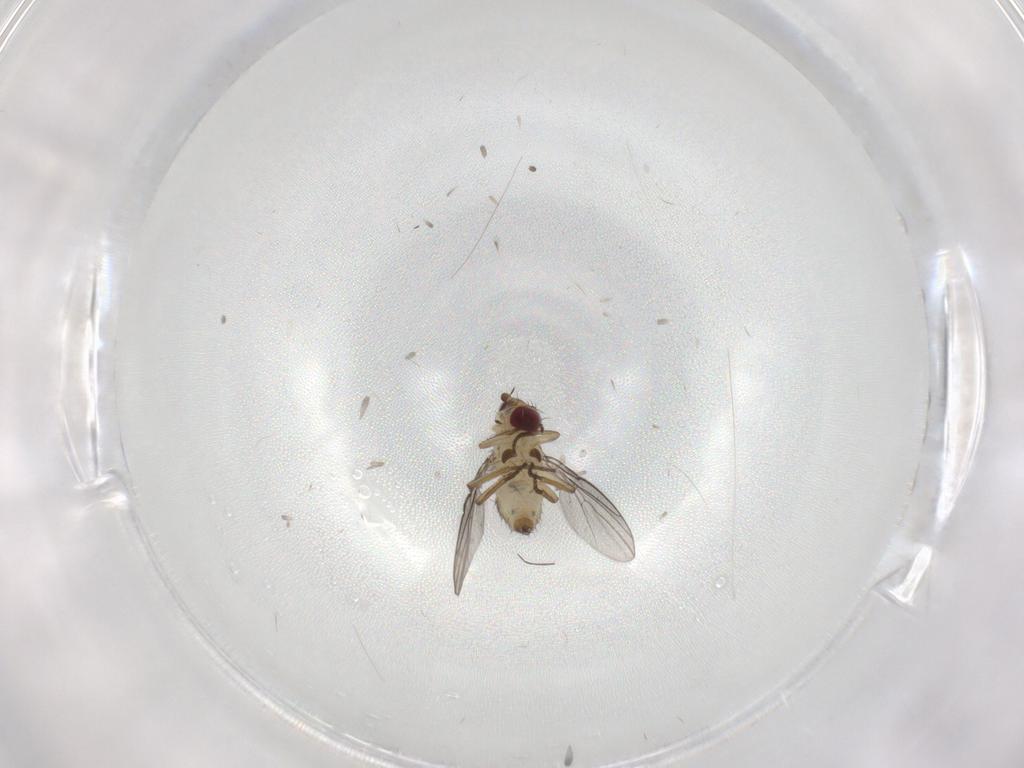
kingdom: Animalia
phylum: Arthropoda
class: Insecta
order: Diptera
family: Agromyzidae
